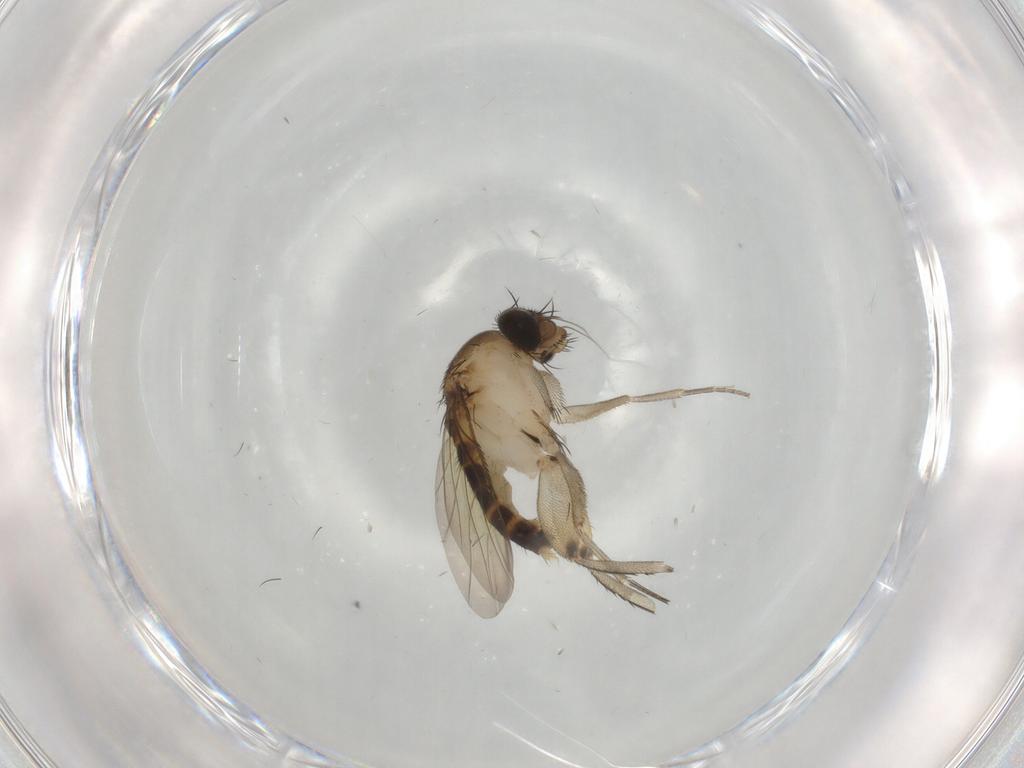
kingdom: Animalia
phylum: Arthropoda
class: Insecta
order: Diptera
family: Phoridae
